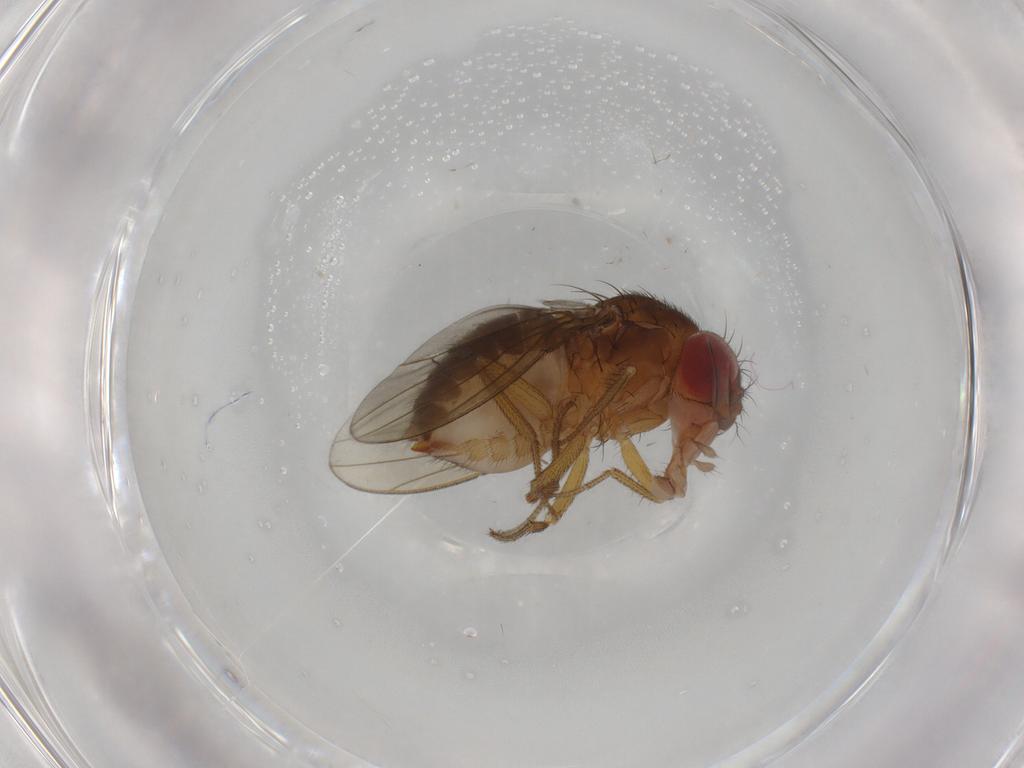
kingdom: Animalia
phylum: Arthropoda
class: Insecta
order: Diptera
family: Drosophilidae
